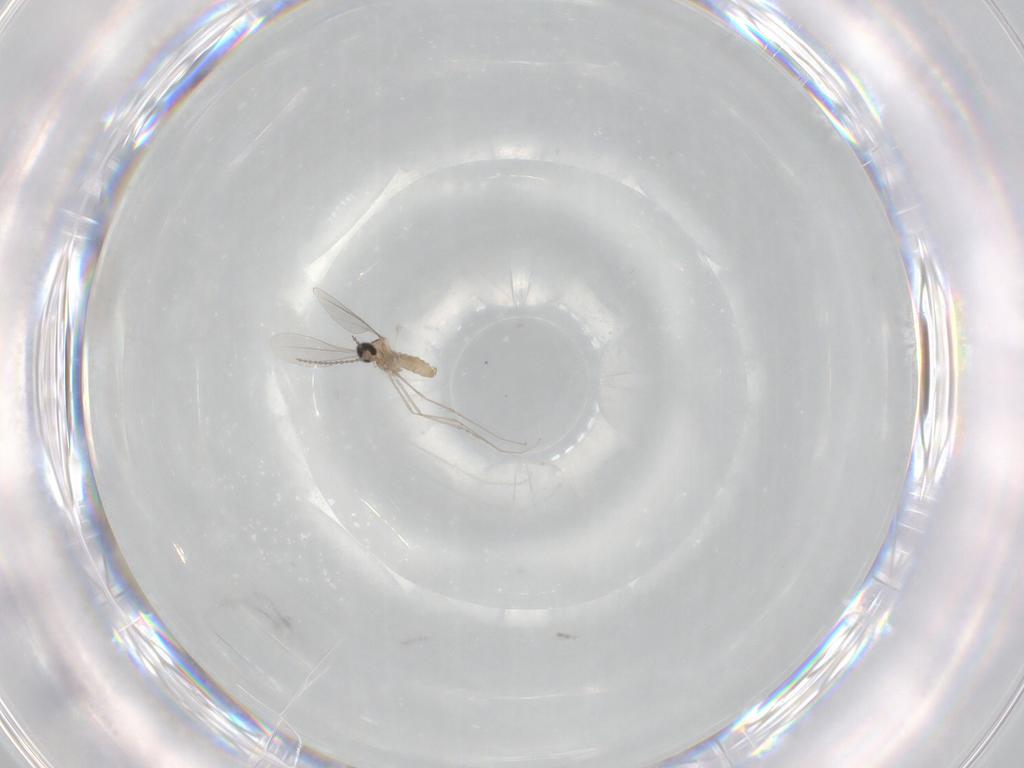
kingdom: Animalia
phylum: Arthropoda
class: Insecta
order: Diptera
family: Cecidomyiidae
